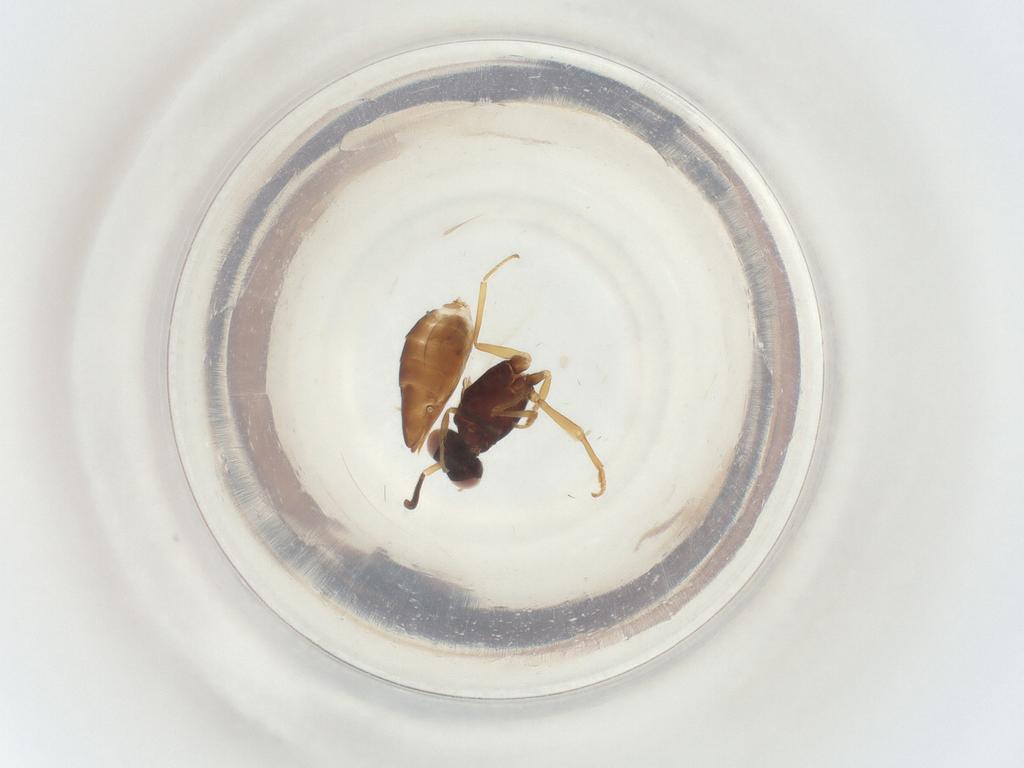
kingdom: Animalia
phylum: Arthropoda
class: Insecta
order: Hymenoptera
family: Eupelmidae
